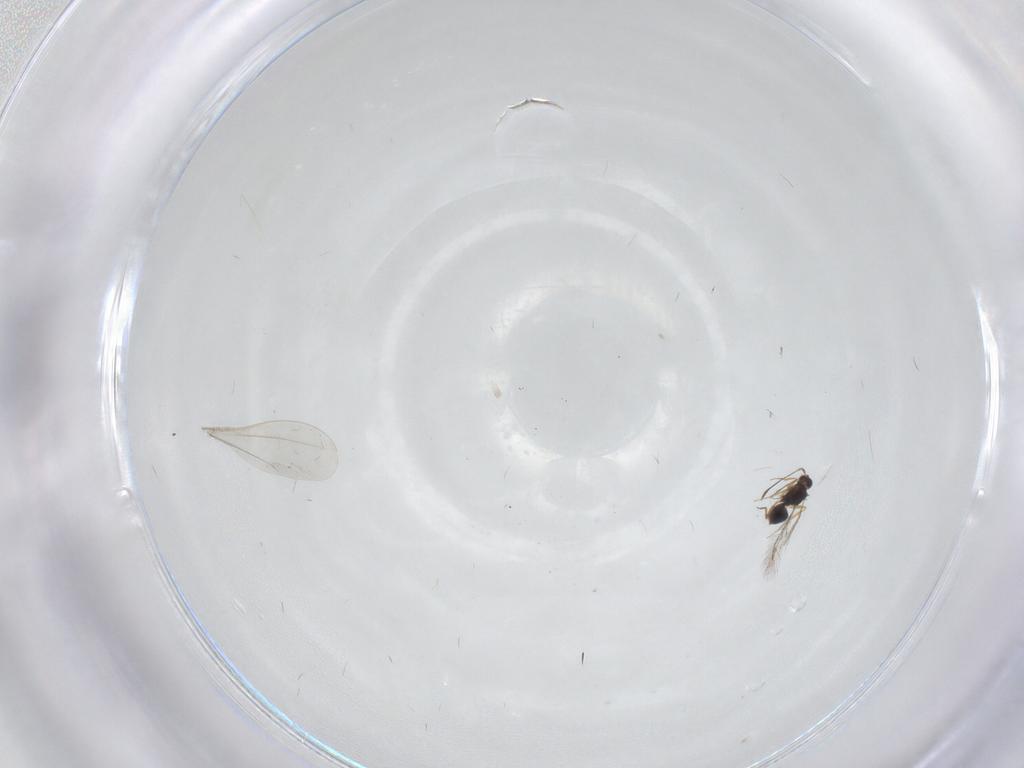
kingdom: Animalia
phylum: Arthropoda
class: Insecta
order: Diptera
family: Cecidomyiidae
